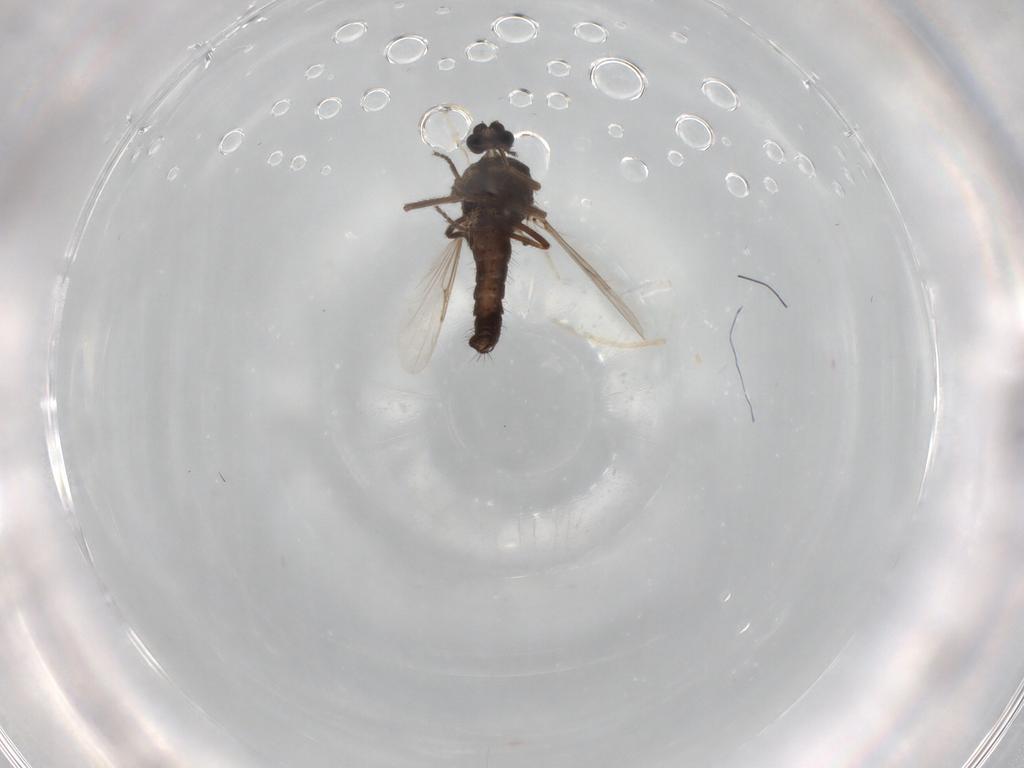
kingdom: Animalia
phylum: Arthropoda
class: Insecta
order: Diptera
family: Ceratopogonidae
